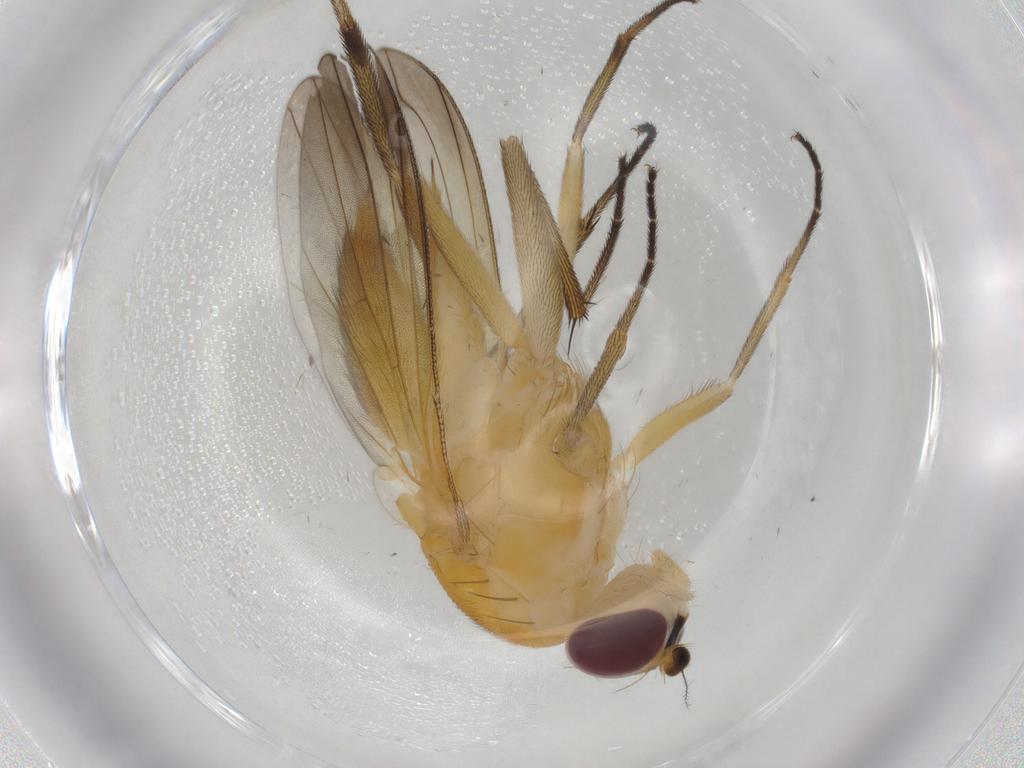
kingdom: Animalia
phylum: Arthropoda
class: Insecta
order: Diptera
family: Clusiidae
